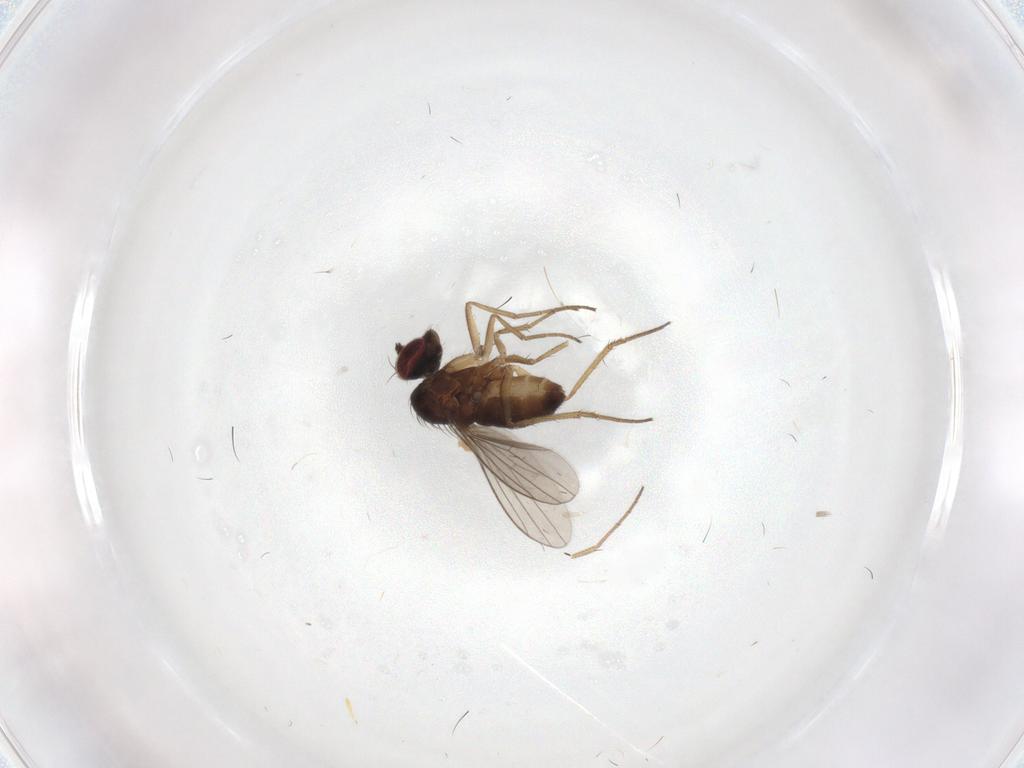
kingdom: Animalia
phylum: Arthropoda
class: Insecta
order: Diptera
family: Dolichopodidae
